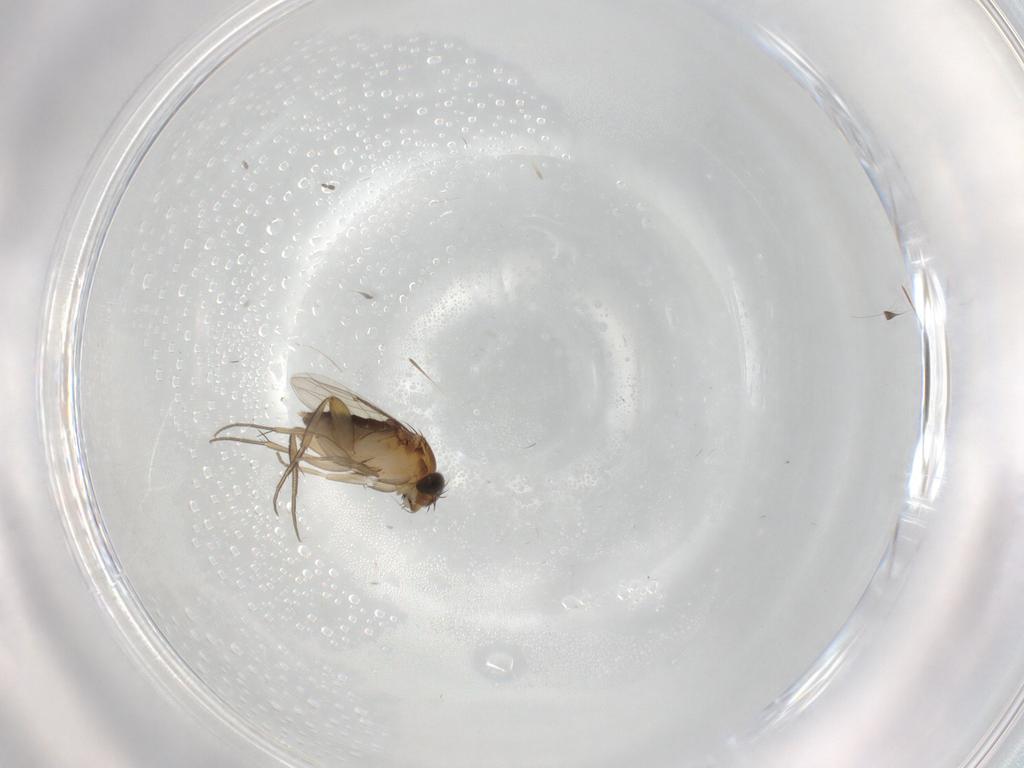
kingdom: Animalia
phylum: Arthropoda
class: Insecta
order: Diptera
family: Phoridae
